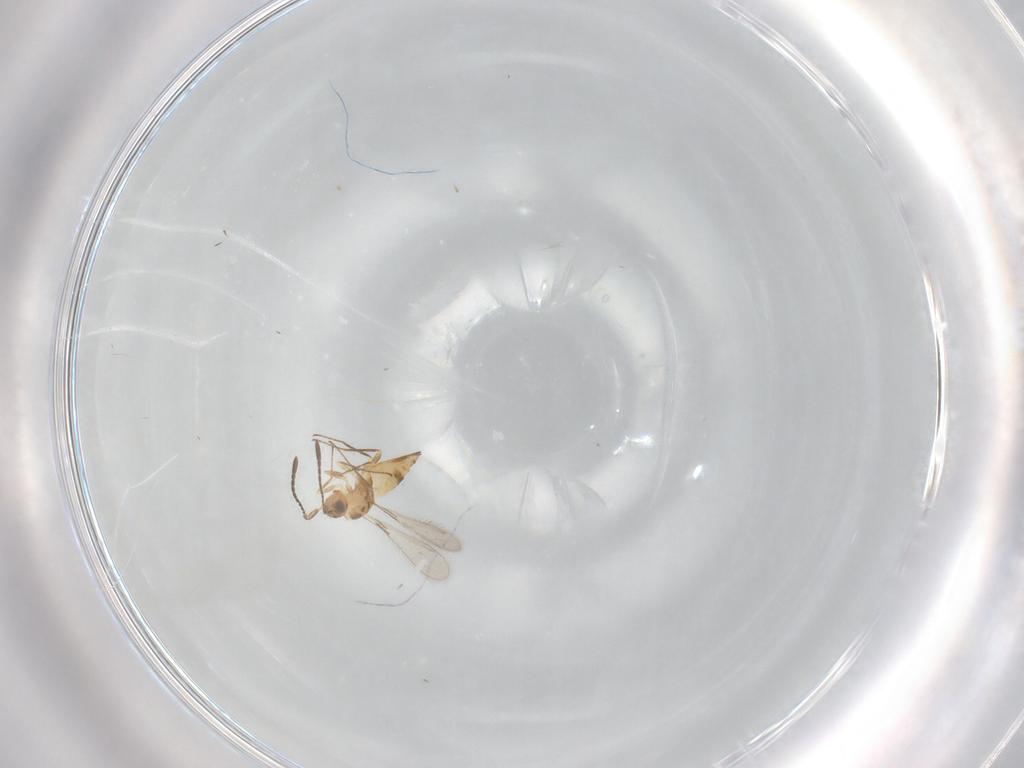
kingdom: Animalia
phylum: Arthropoda
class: Insecta
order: Hymenoptera
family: Mymaridae
